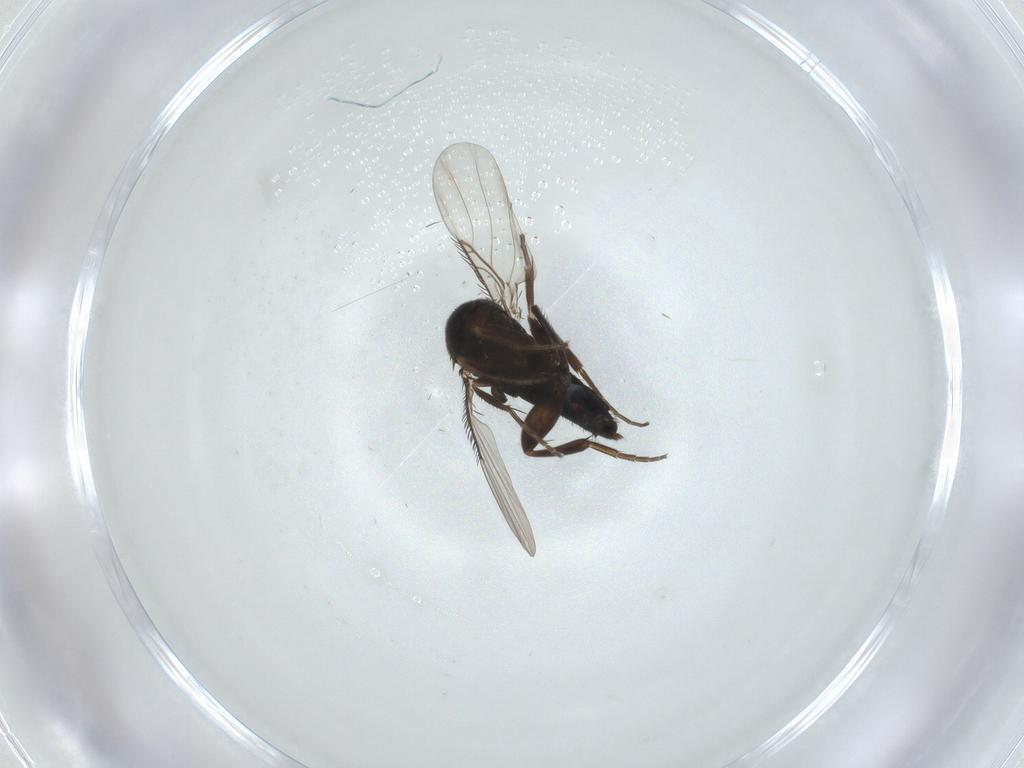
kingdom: Animalia
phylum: Arthropoda
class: Insecta
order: Diptera
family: Phoridae
